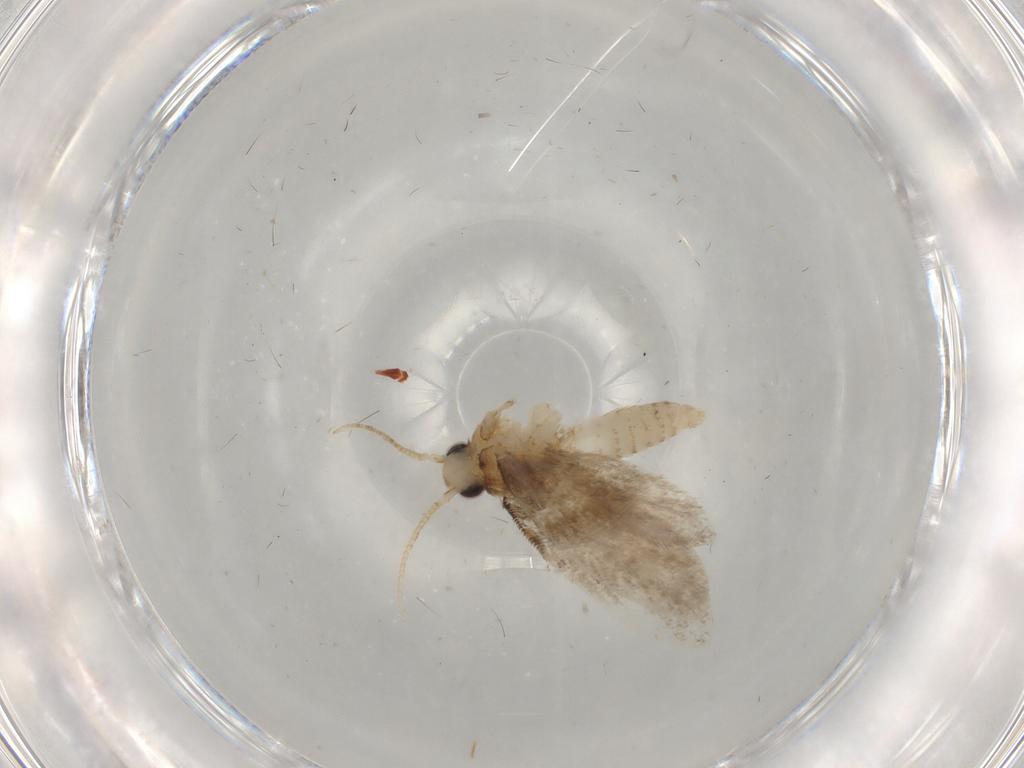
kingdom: Animalia
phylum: Arthropoda
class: Insecta
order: Lepidoptera
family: Psychidae
